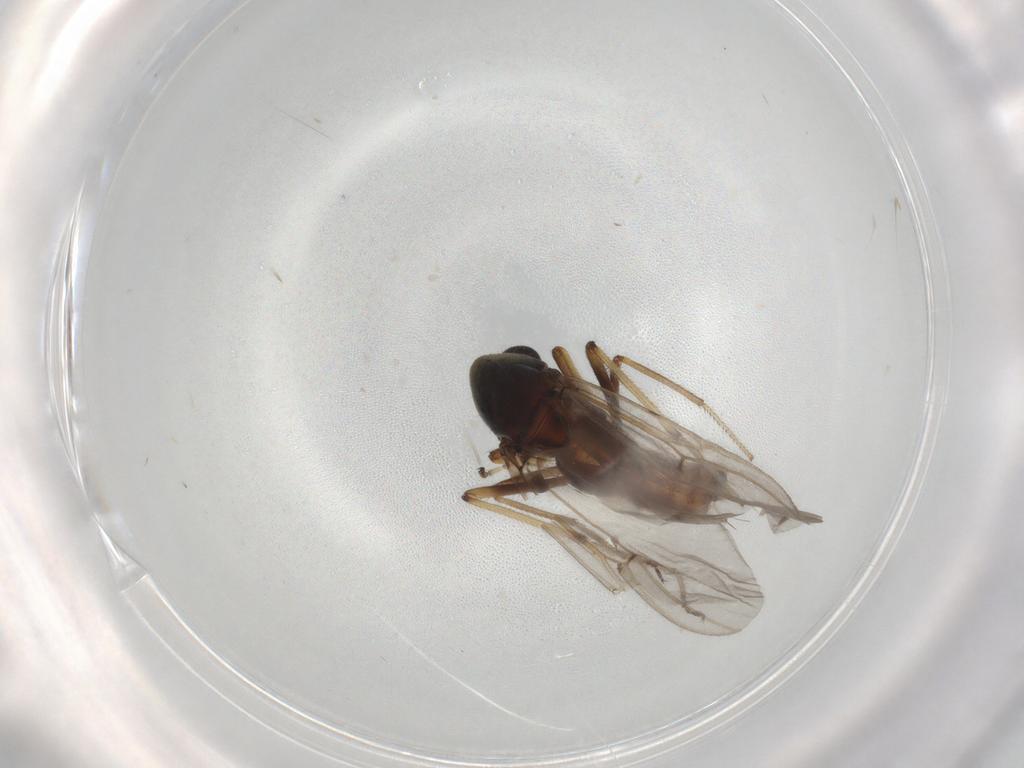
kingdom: Animalia
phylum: Arthropoda
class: Insecta
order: Diptera
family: Ceratopogonidae
